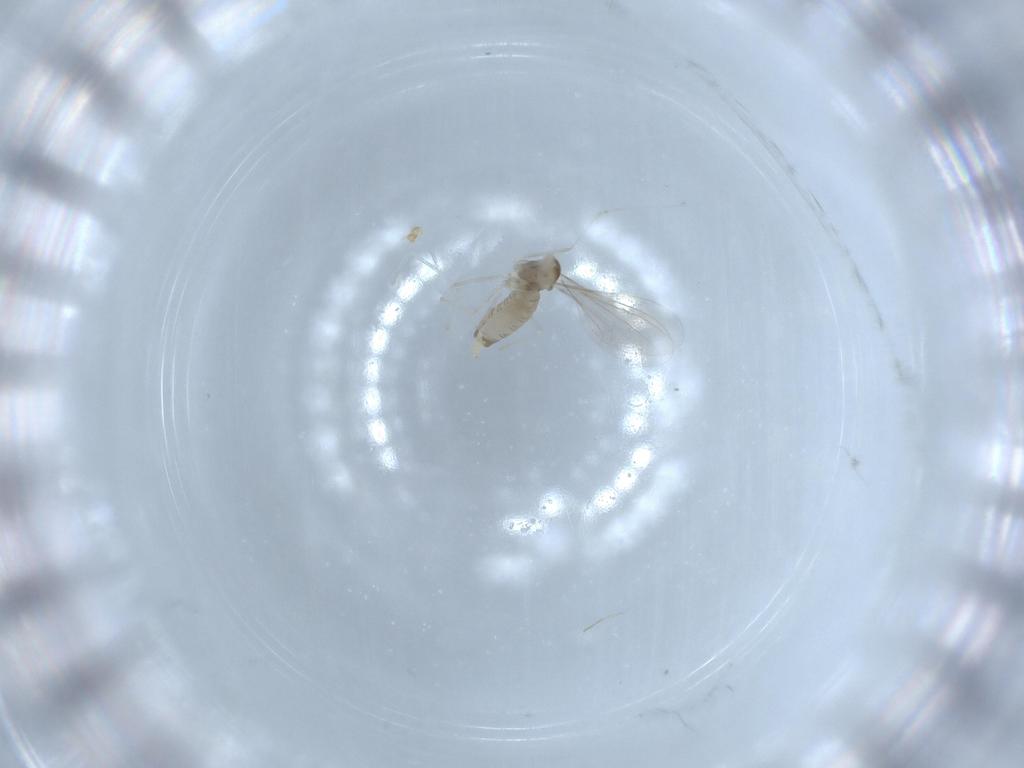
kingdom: Animalia
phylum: Arthropoda
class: Insecta
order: Diptera
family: Cecidomyiidae
